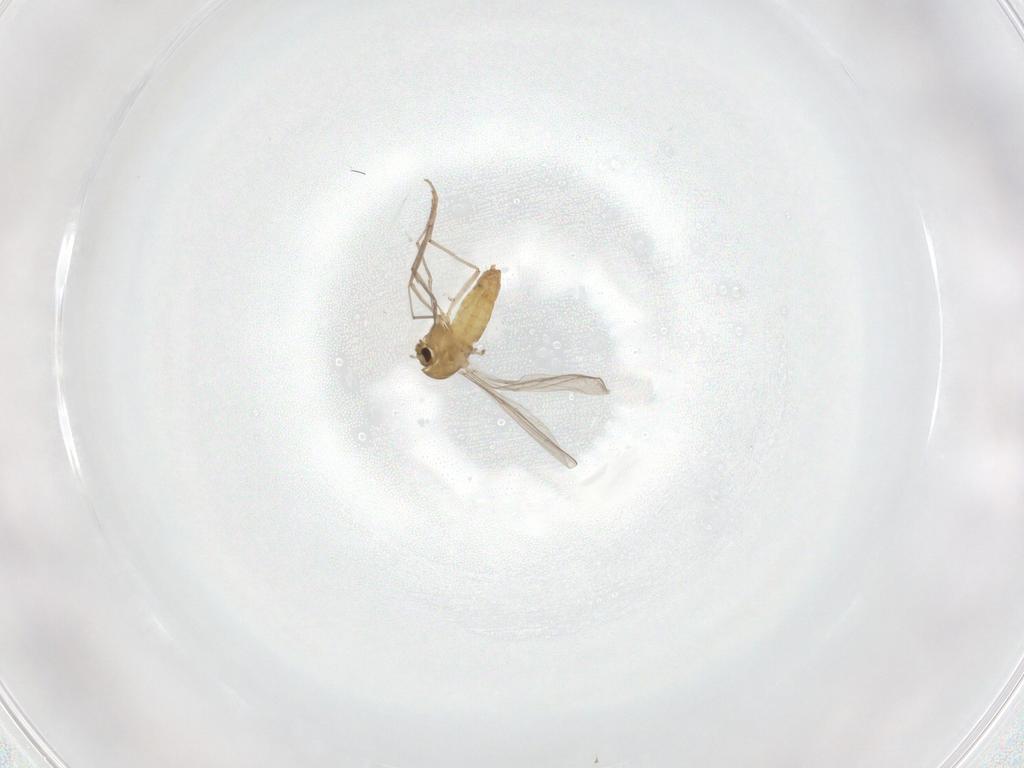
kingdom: Animalia
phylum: Arthropoda
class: Insecta
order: Diptera
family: Chironomidae
